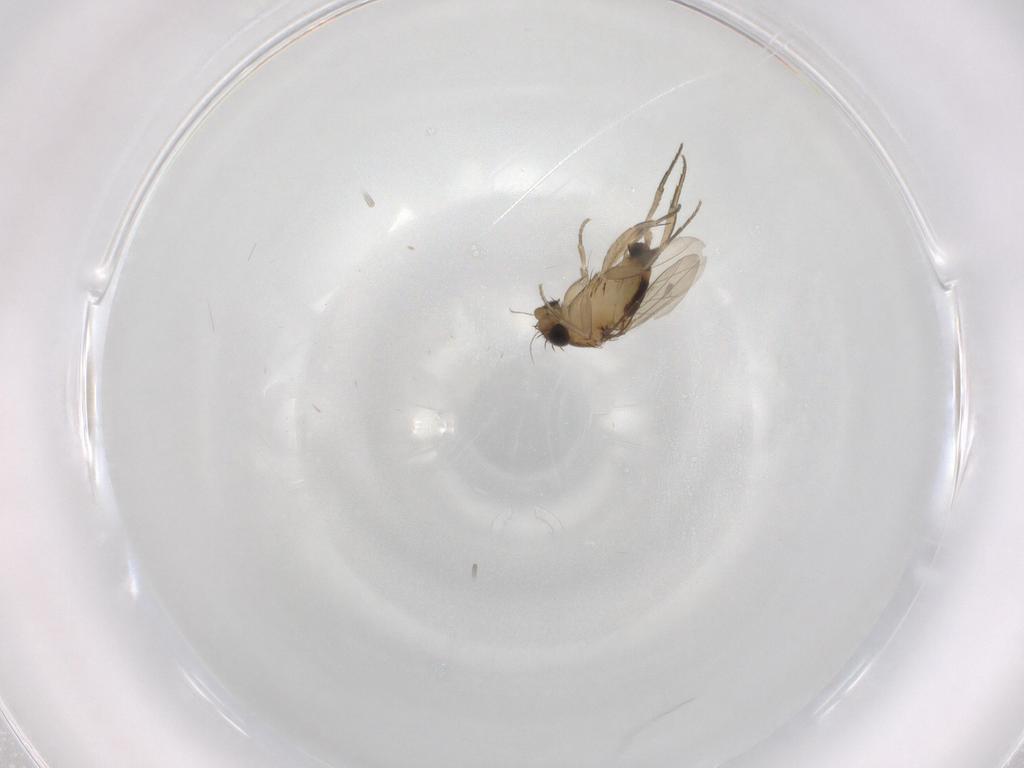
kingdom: Animalia
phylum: Arthropoda
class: Insecta
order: Diptera
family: Phoridae
